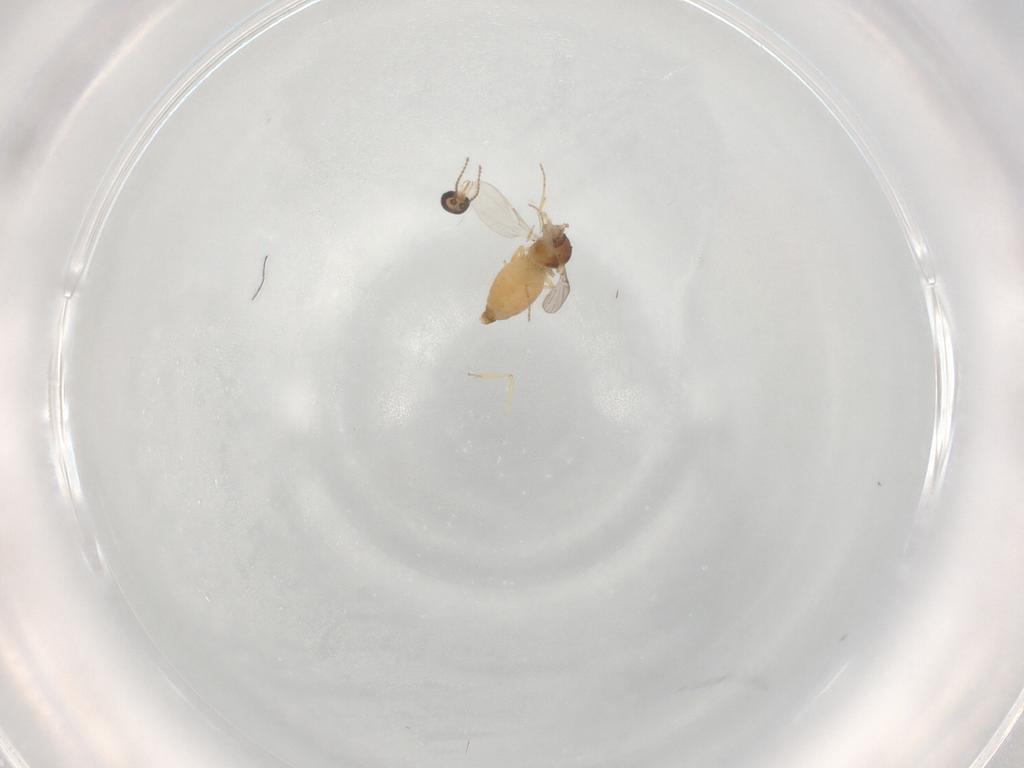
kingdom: Animalia
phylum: Arthropoda
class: Insecta
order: Diptera
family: Ceratopogonidae
